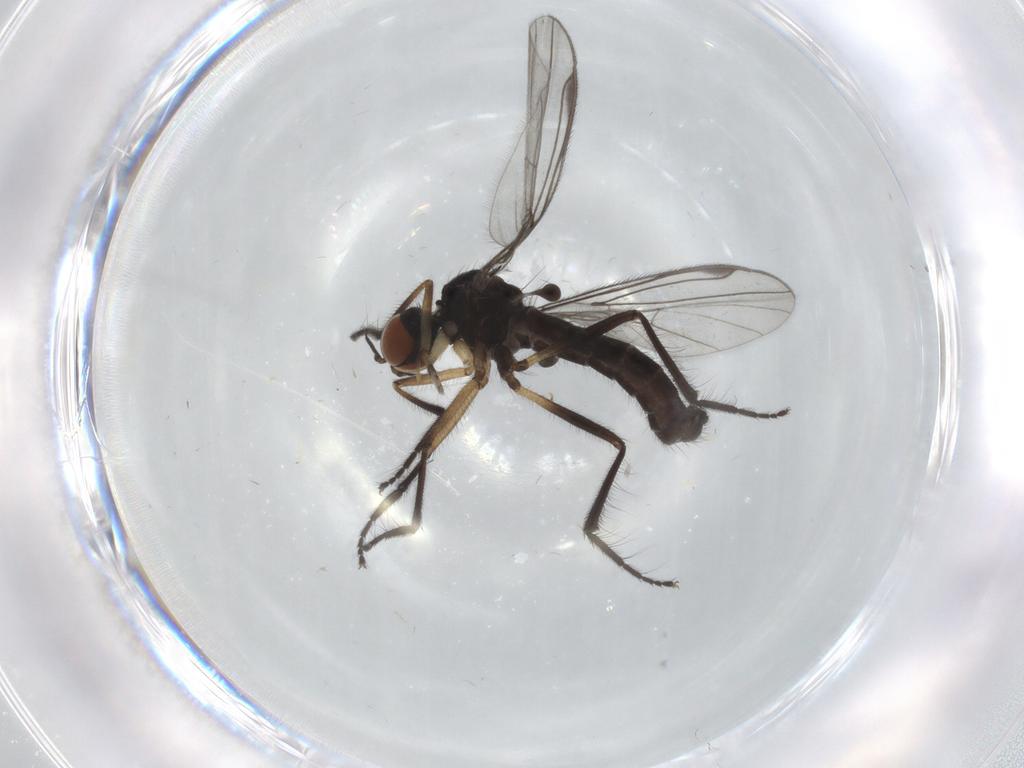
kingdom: Animalia
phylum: Arthropoda
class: Insecta
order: Diptera
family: Empididae
